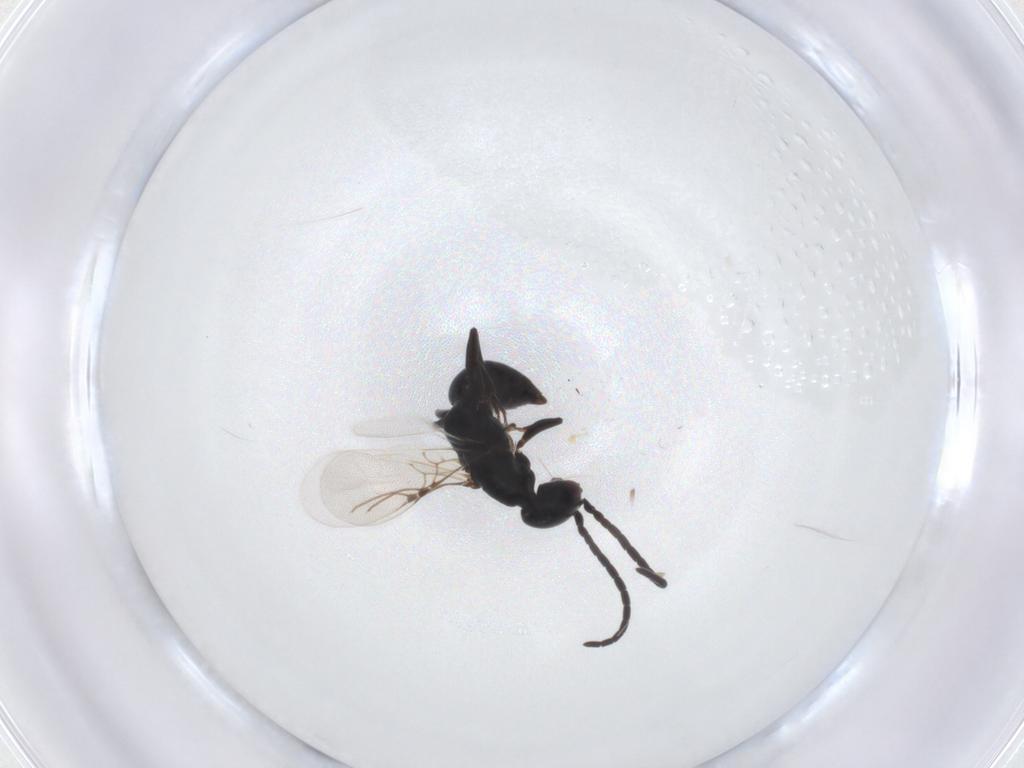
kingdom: Animalia
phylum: Arthropoda
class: Insecta
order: Hymenoptera
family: Bethylidae
